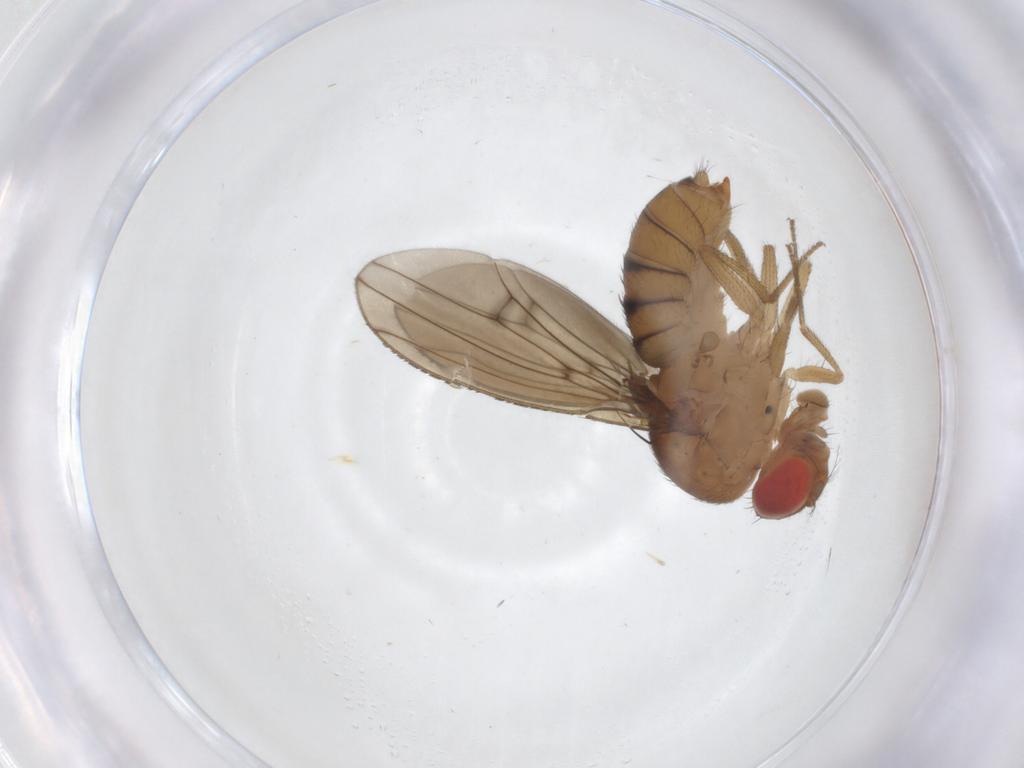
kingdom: Animalia
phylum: Arthropoda
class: Insecta
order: Diptera
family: Drosophilidae
